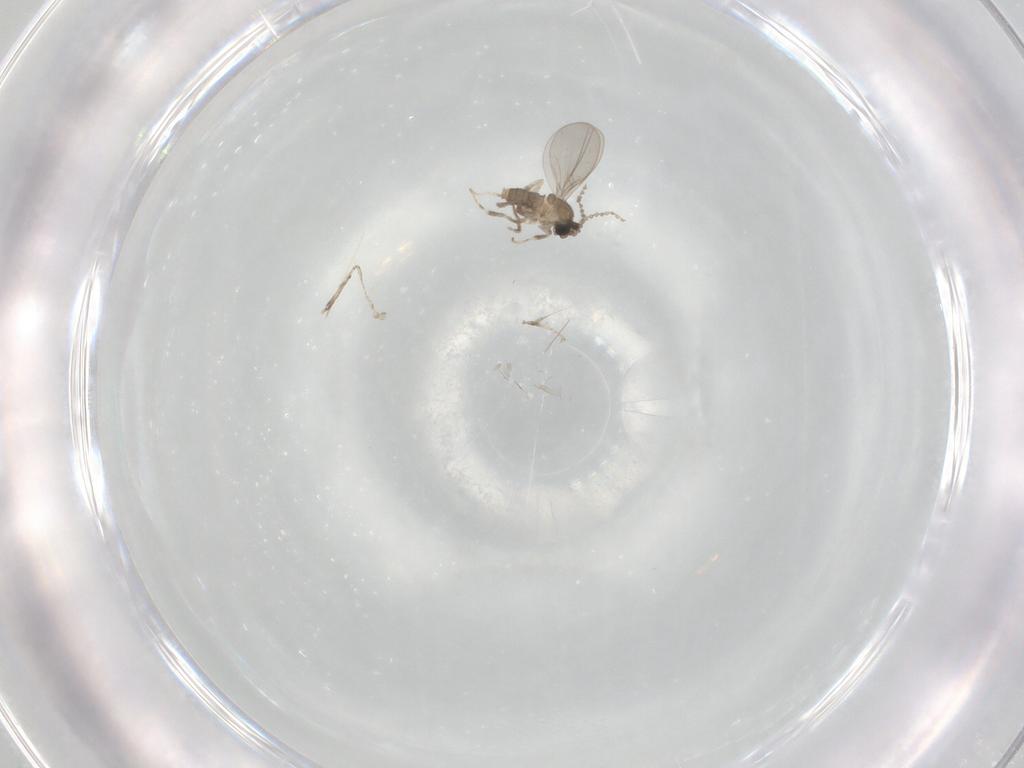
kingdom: Animalia
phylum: Arthropoda
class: Insecta
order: Diptera
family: Cecidomyiidae
